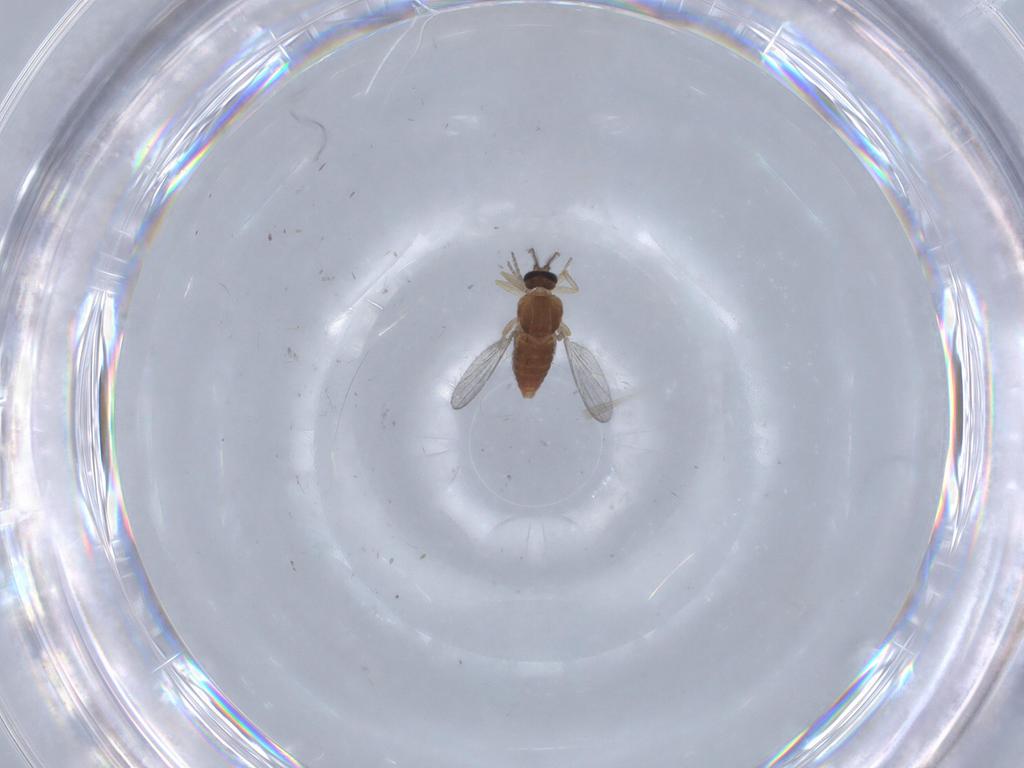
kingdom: Animalia
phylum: Arthropoda
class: Insecta
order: Diptera
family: Ceratopogonidae
